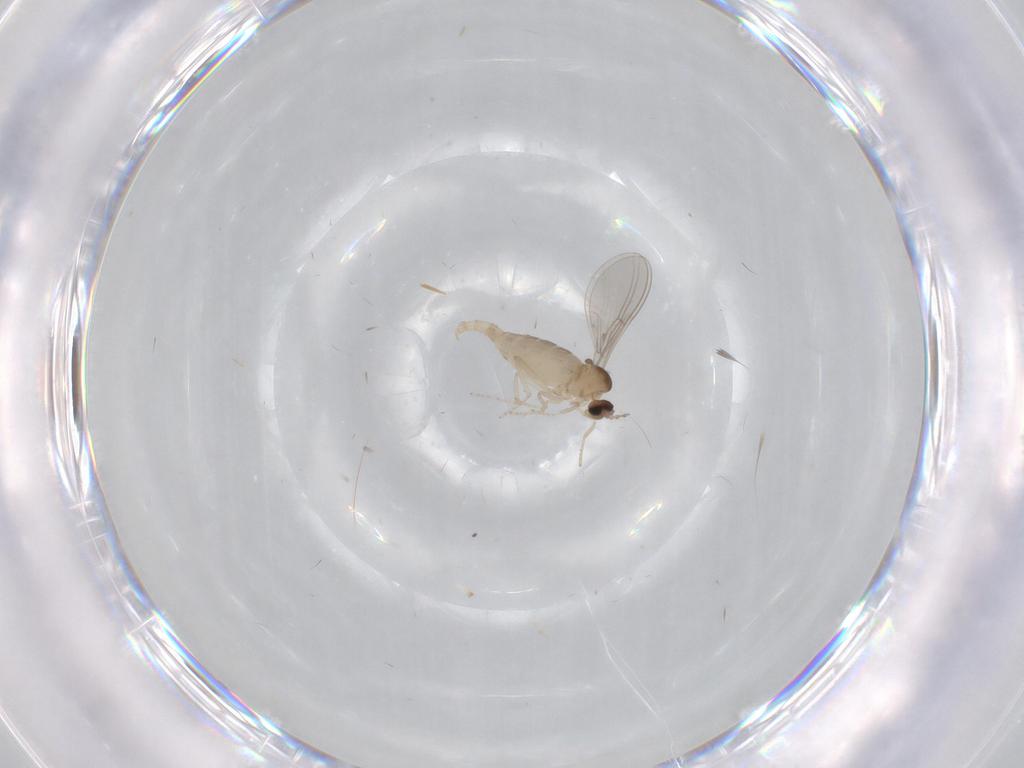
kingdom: Animalia
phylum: Arthropoda
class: Insecta
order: Diptera
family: Cecidomyiidae
